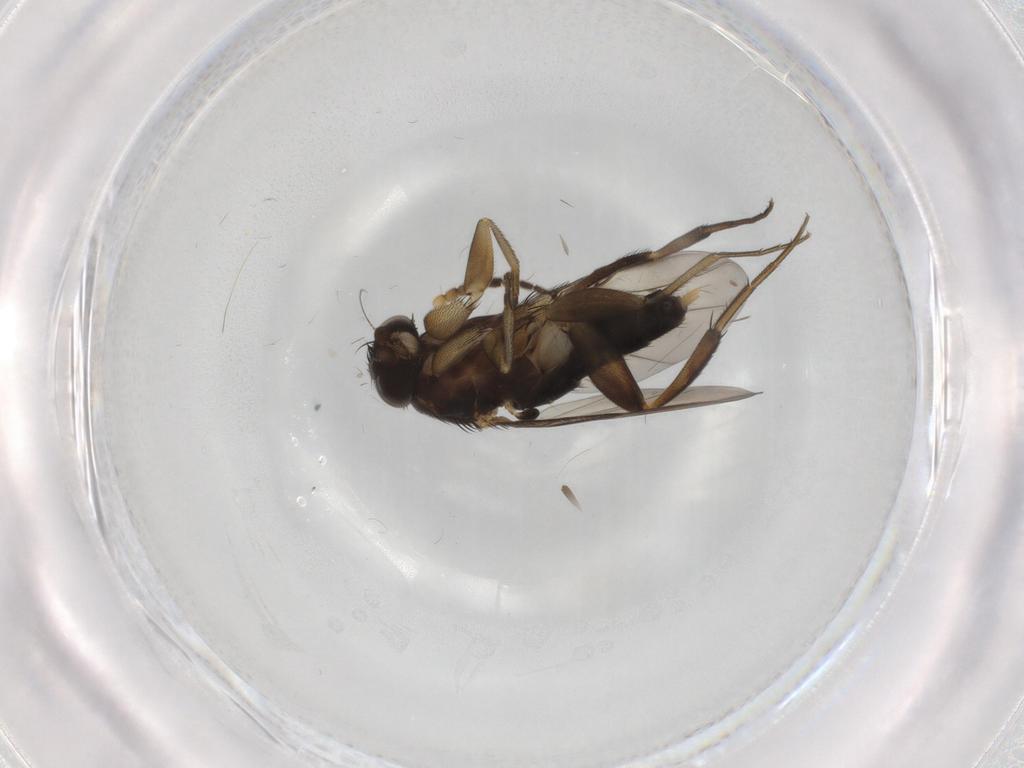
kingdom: Animalia
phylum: Arthropoda
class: Insecta
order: Diptera
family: Phoridae
